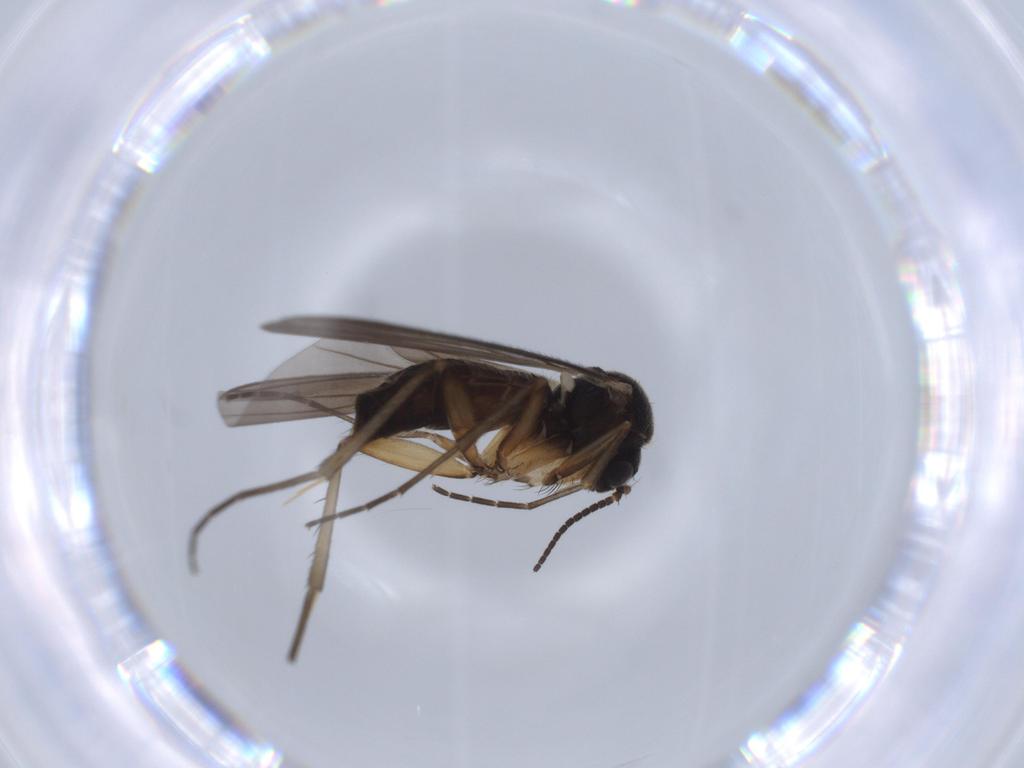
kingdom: Animalia
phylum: Arthropoda
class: Insecta
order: Diptera
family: Mycetophilidae
